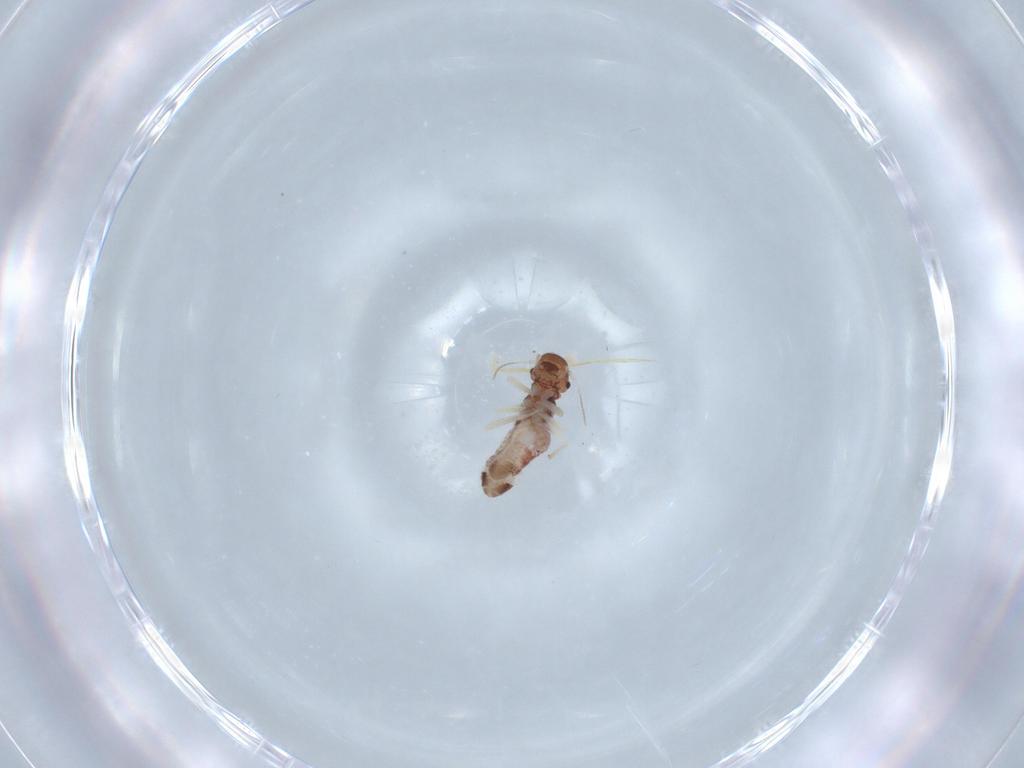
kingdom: Animalia
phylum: Arthropoda
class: Insecta
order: Psocodea
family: Archipsocidae
